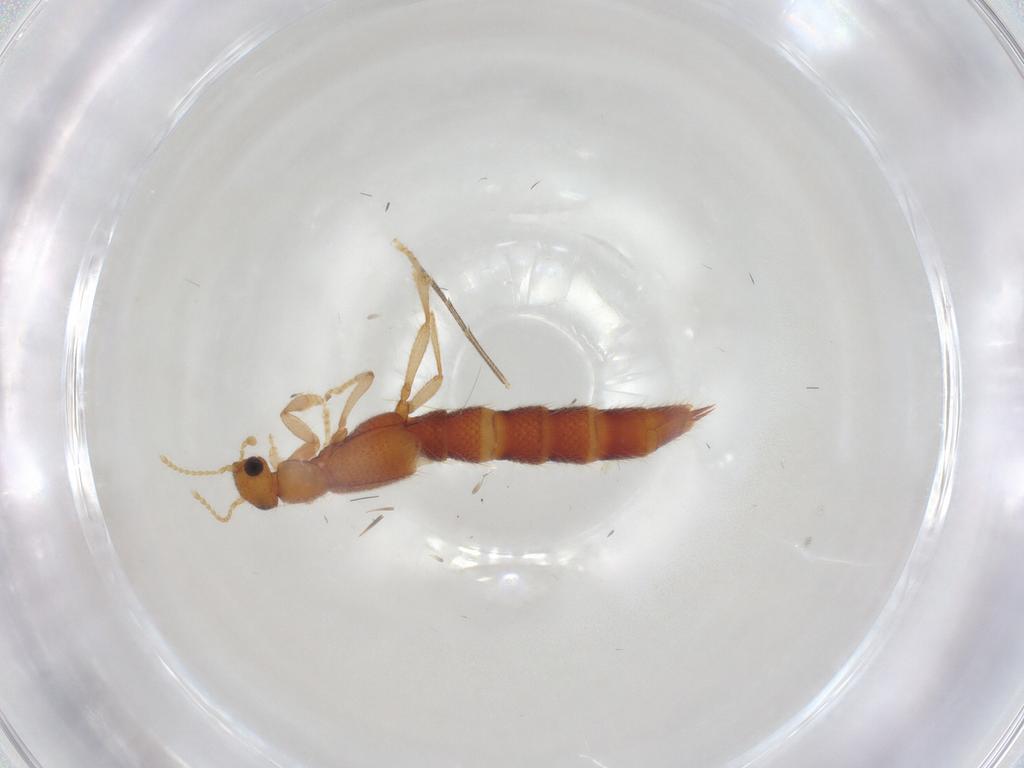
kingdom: Animalia
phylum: Arthropoda
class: Insecta
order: Coleoptera
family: Staphylinidae
